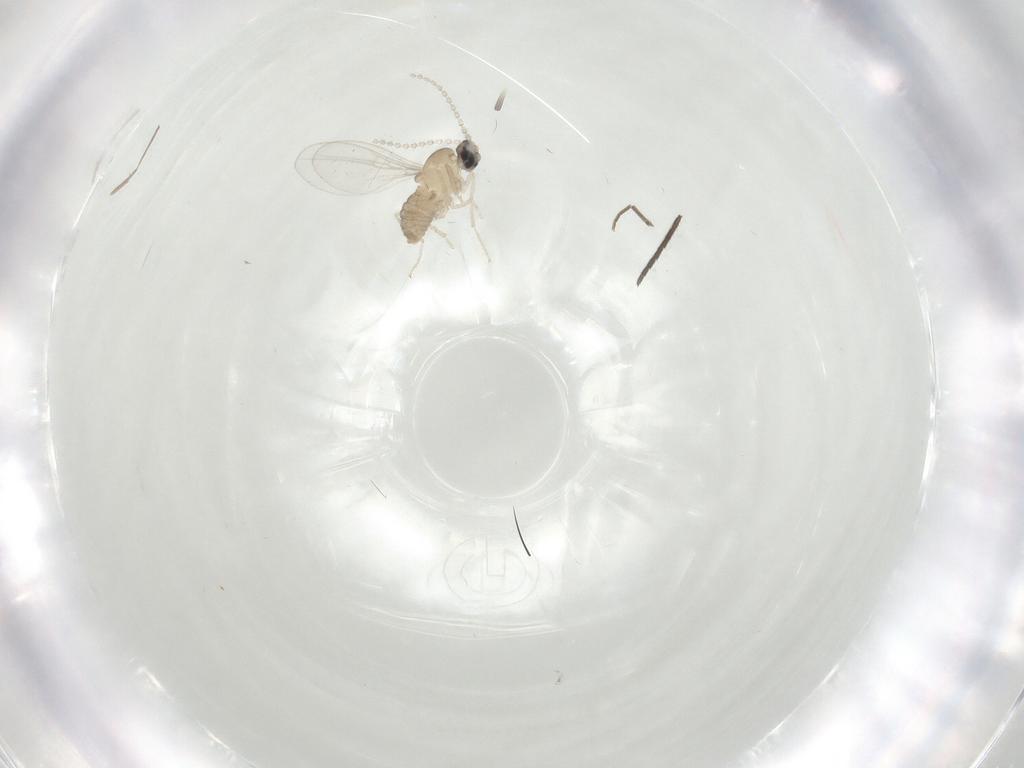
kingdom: Animalia
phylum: Arthropoda
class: Insecta
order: Diptera
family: Cecidomyiidae
